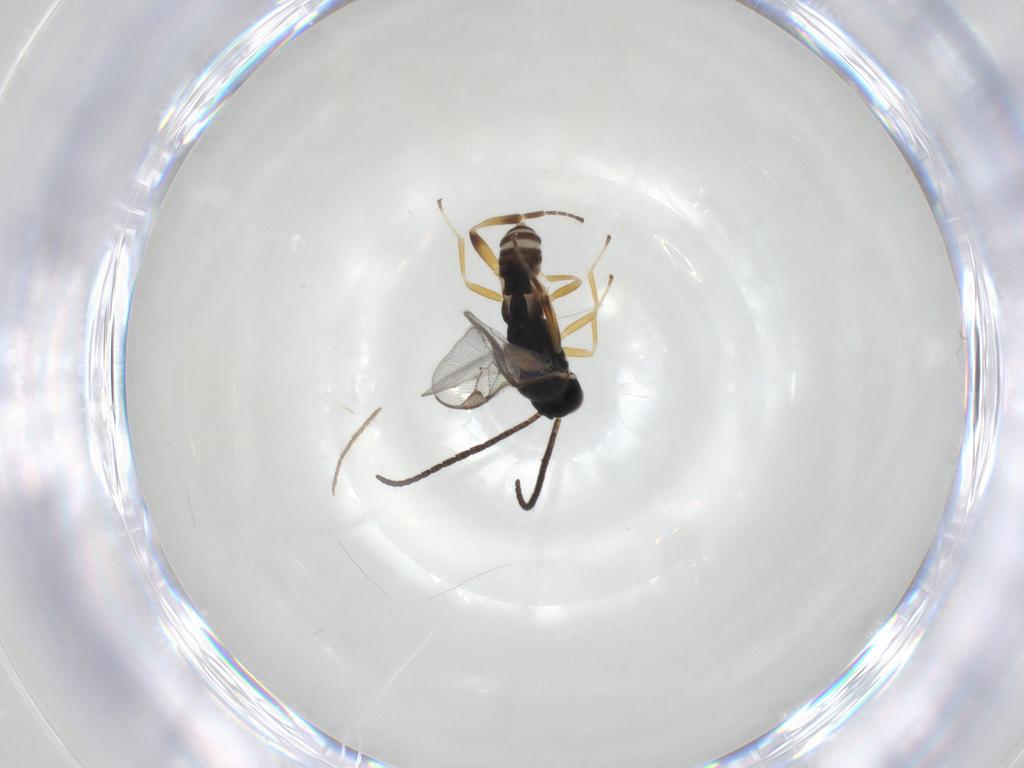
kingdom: Animalia
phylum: Arthropoda
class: Insecta
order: Hymenoptera
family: Braconidae
